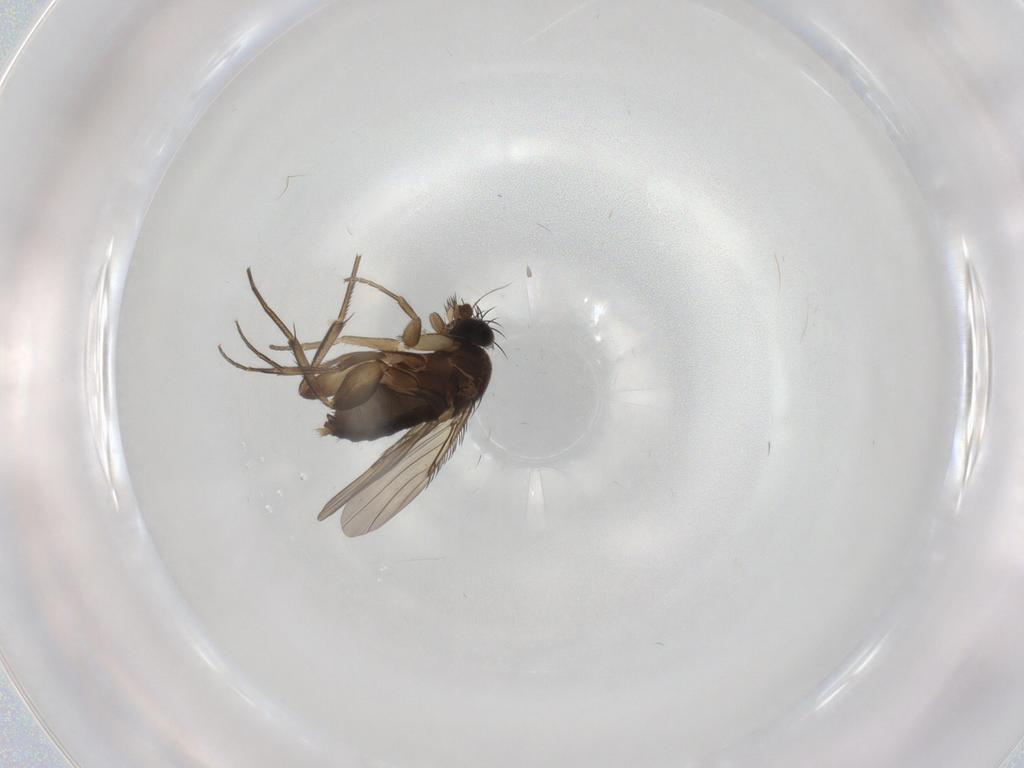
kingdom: Animalia
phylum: Arthropoda
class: Insecta
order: Diptera
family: Phoridae
